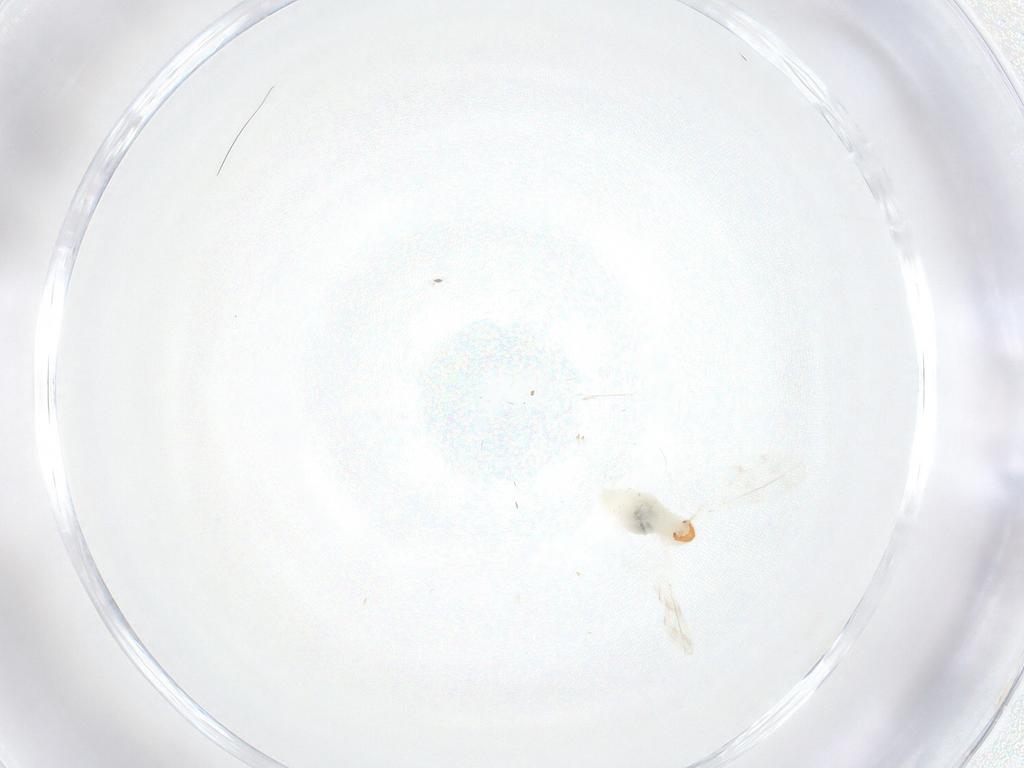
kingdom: Animalia
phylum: Arthropoda
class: Insecta
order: Diptera
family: Cecidomyiidae
